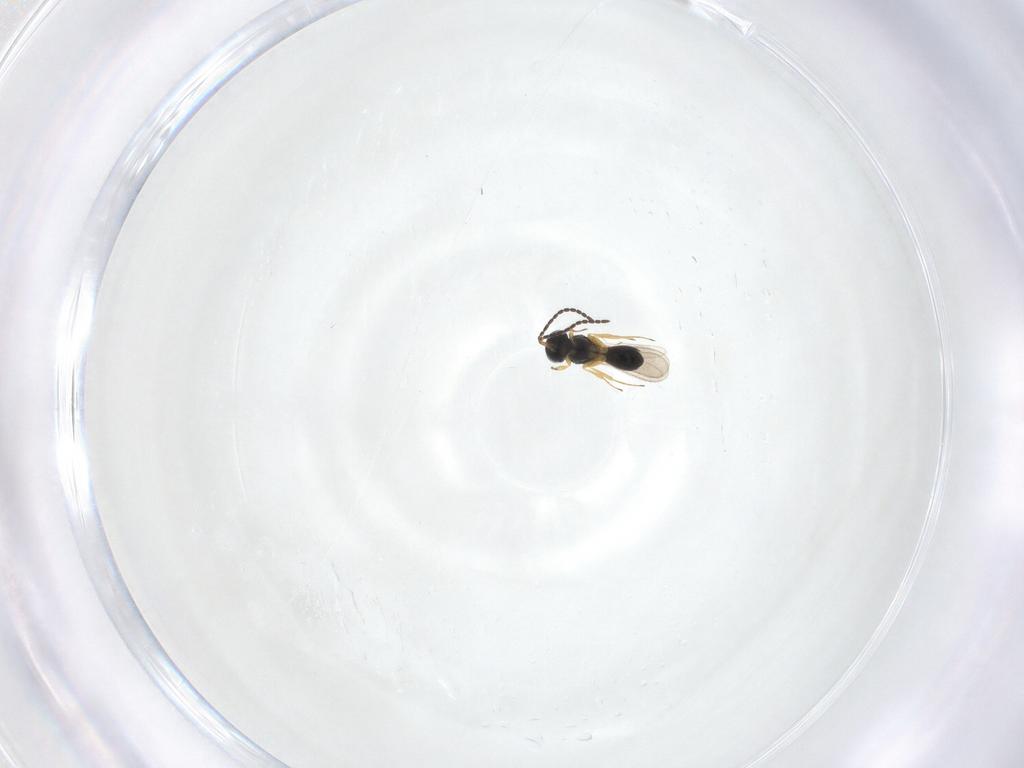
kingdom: Animalia
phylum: Arthropoda
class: Insecta
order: Hymenoptera
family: Scelionidae
